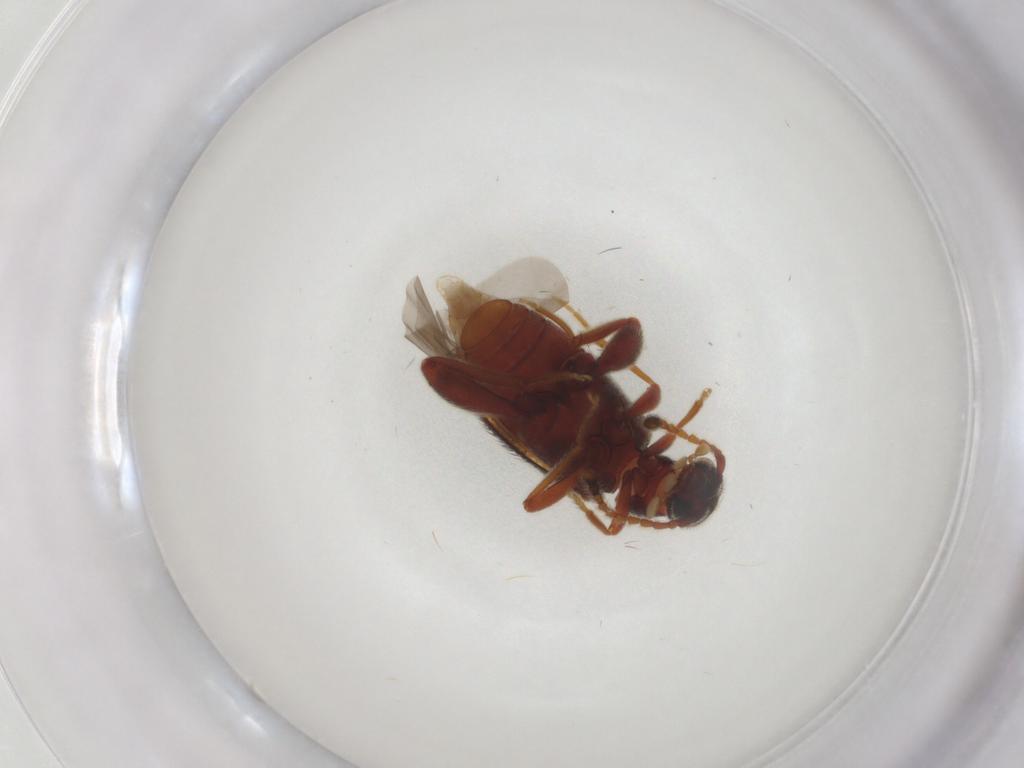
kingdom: Animalia
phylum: Arthropoda
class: Insecta
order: Coleoptera
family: Aderidae
